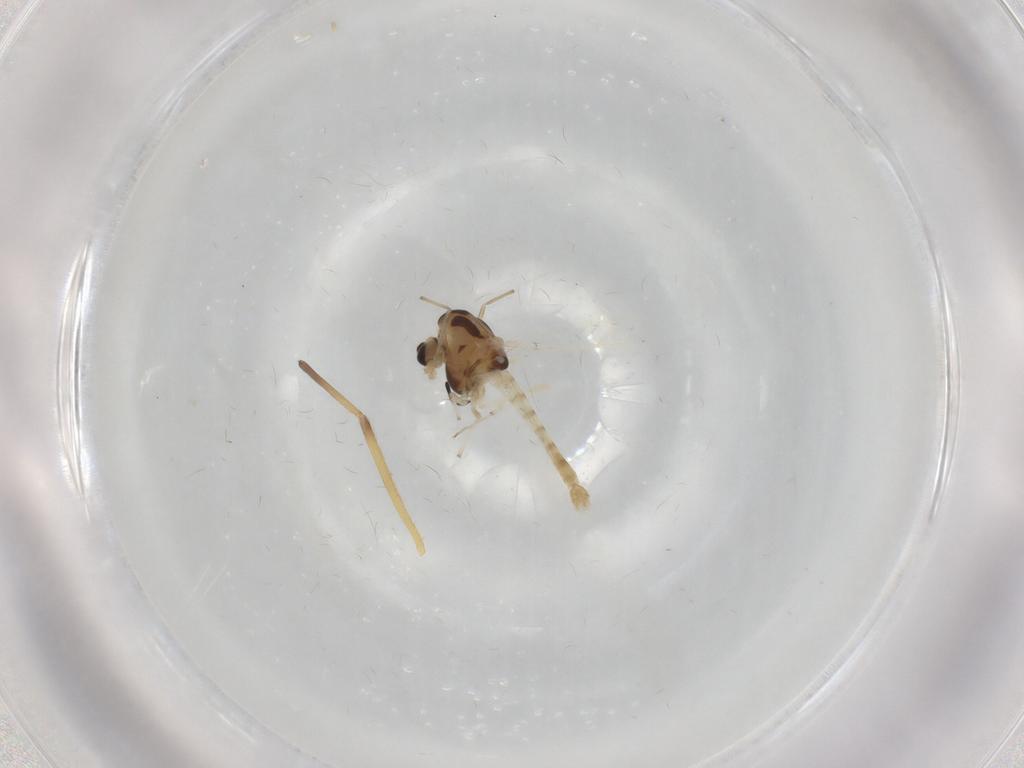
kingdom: Animalia
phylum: Arthropoda
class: Insecta
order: Diptera
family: Chironomidae
